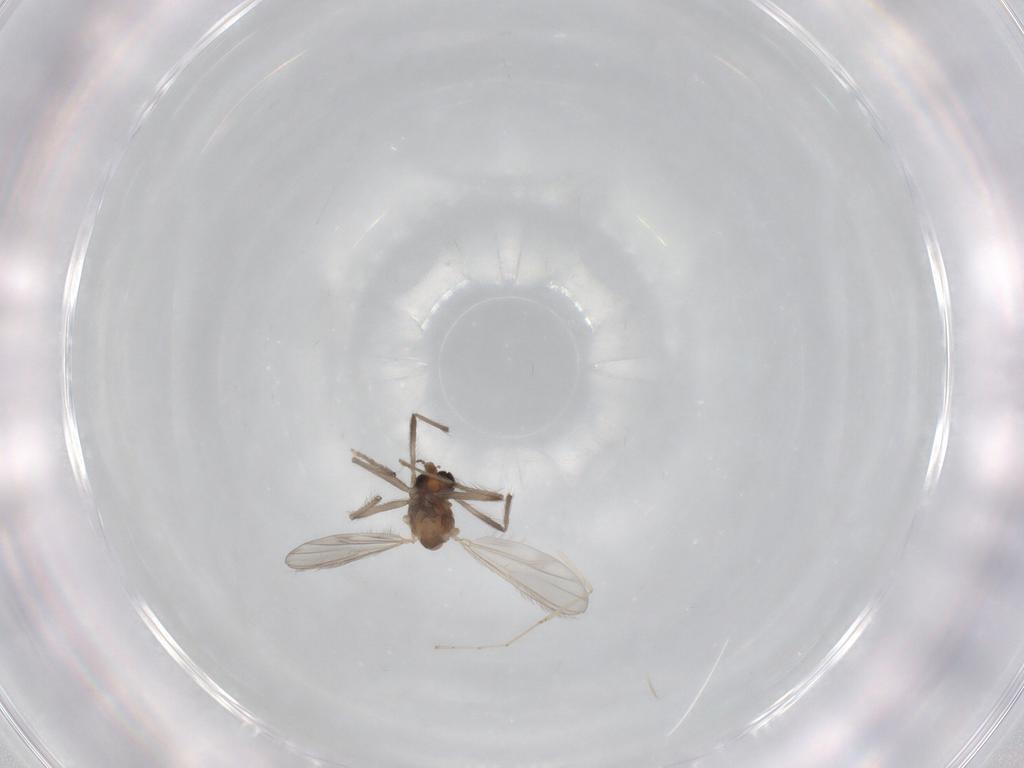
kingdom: Animalia
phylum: Arthropoda
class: Insecta
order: Diptera
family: Chironomidae
